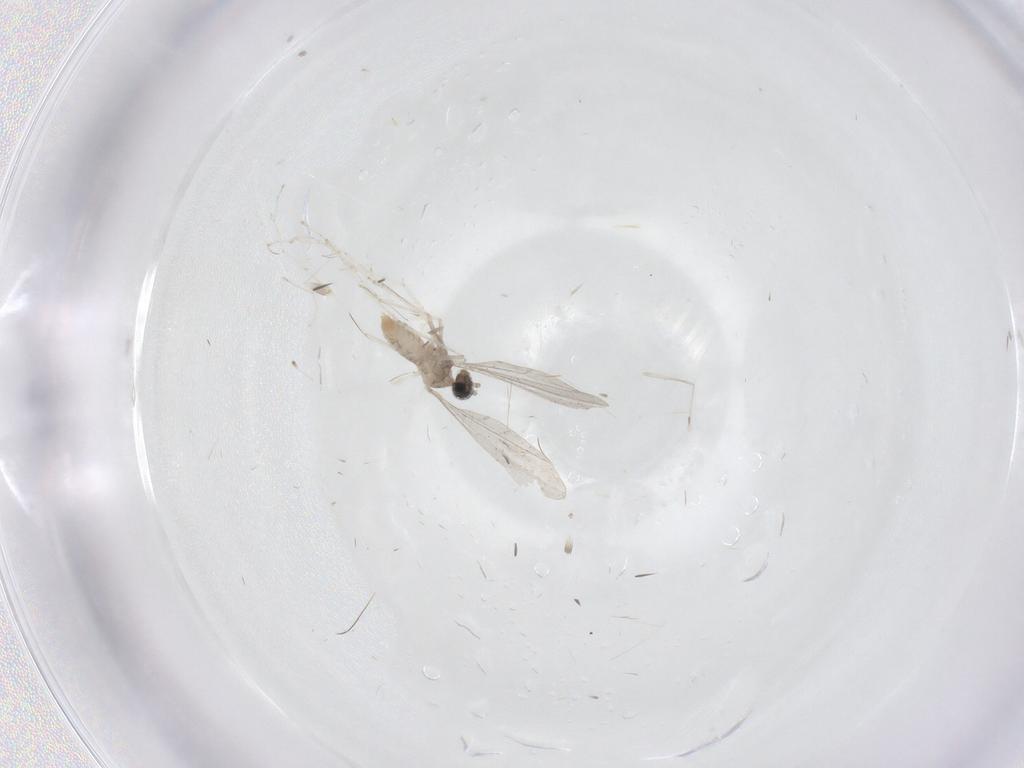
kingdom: Animalia
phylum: Arthropoda
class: Insecta
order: Diptera
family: Cecidomyiidae
